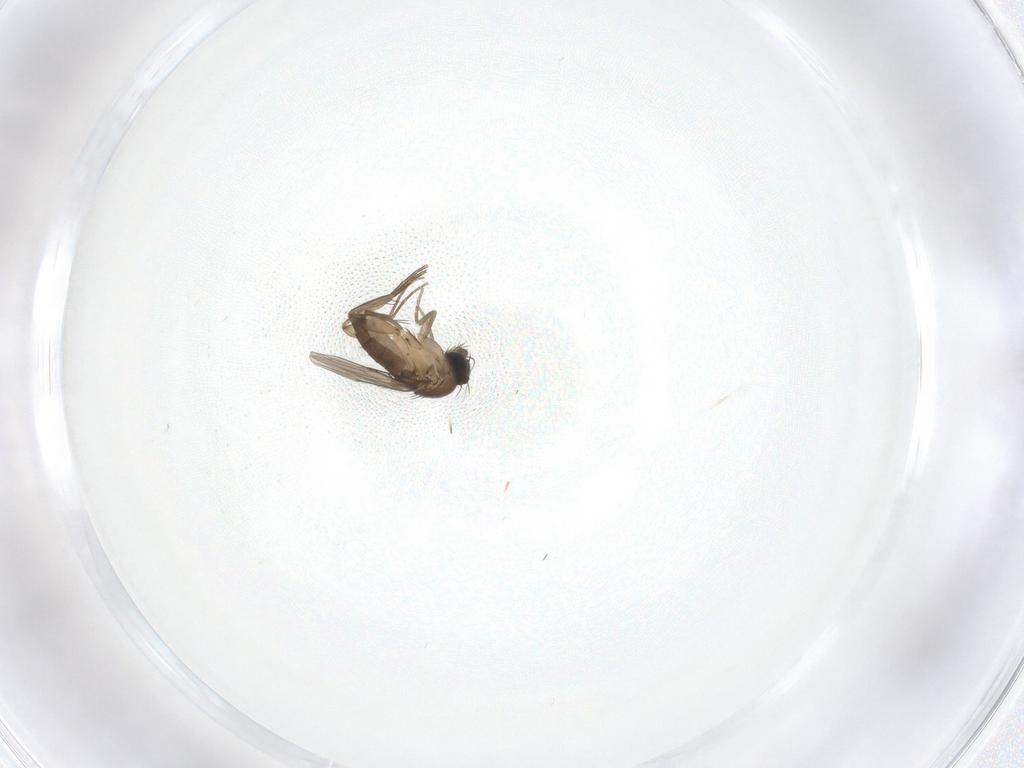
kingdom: Animalia
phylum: Arthropoda
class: Insecta
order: Diptera
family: Phoridae
